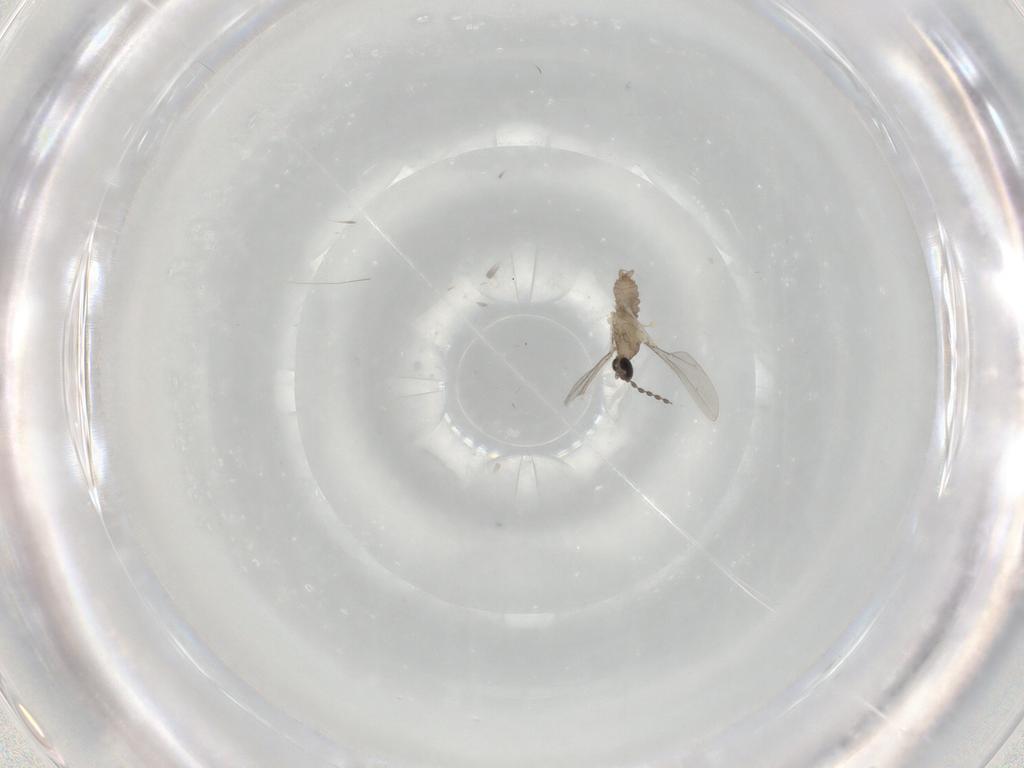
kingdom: Animalia
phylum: Arthropoda
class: Insecta
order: Diptera
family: Cecidomyiidae
